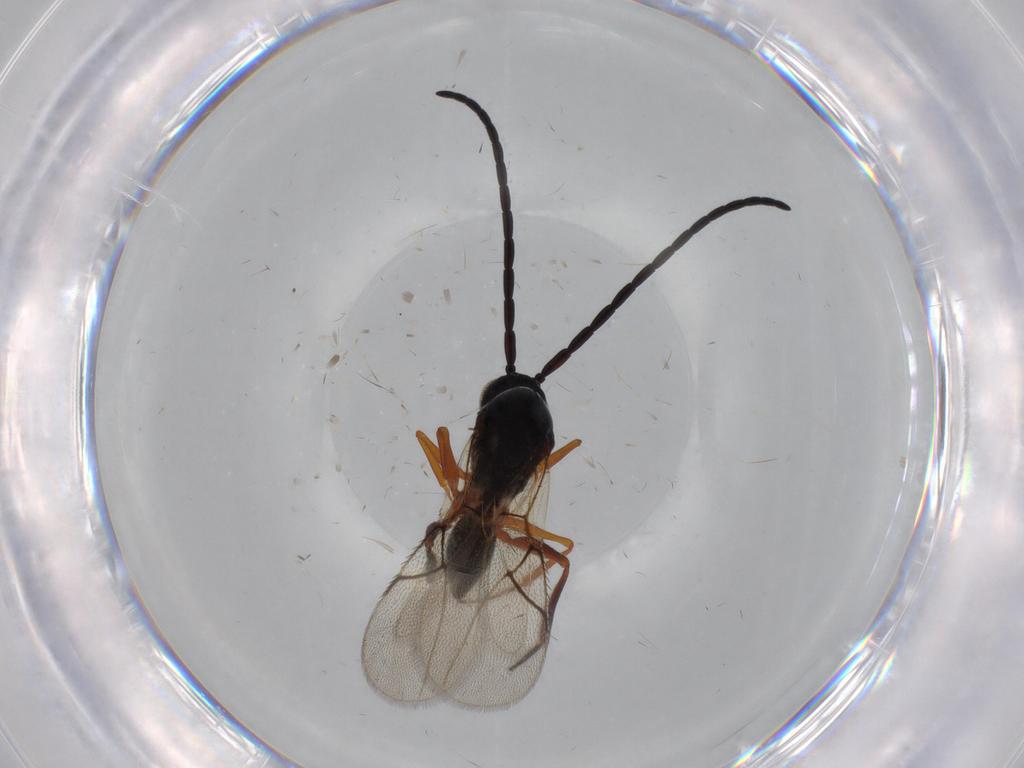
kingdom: Animalia
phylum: Arthropoda
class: Insecta
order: Hymenoptera
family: Figitidae
